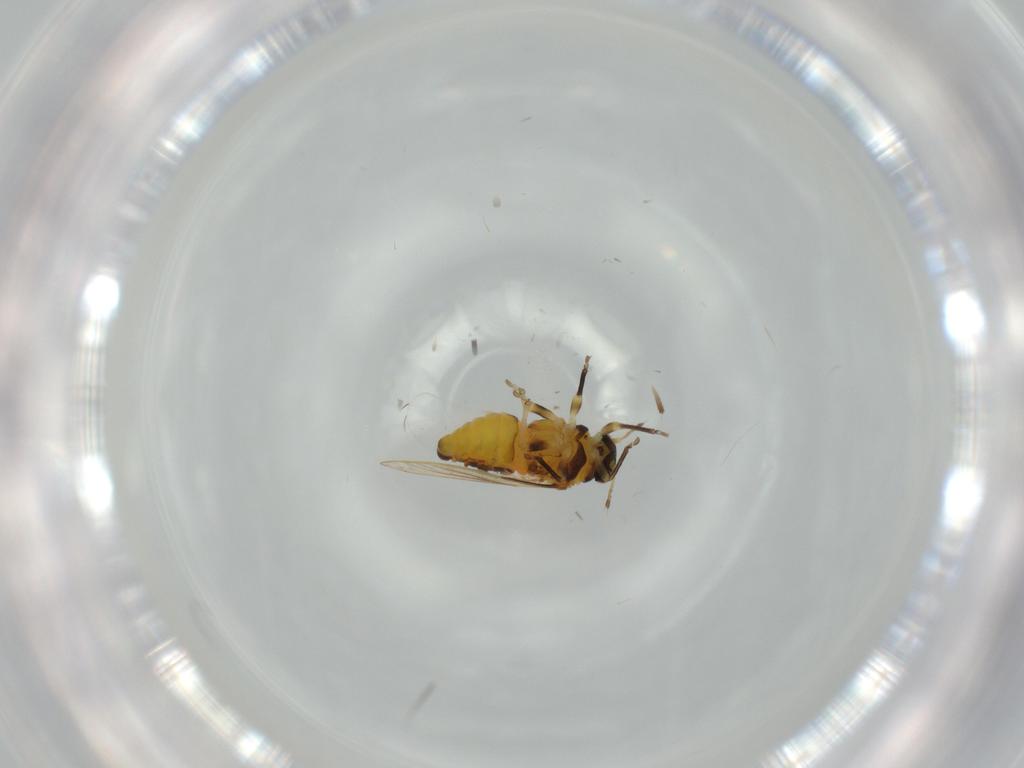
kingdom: Animalia
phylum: Arthropoda
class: Insecta
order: Hemiptera
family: Psylloidea_incertae_sedis
